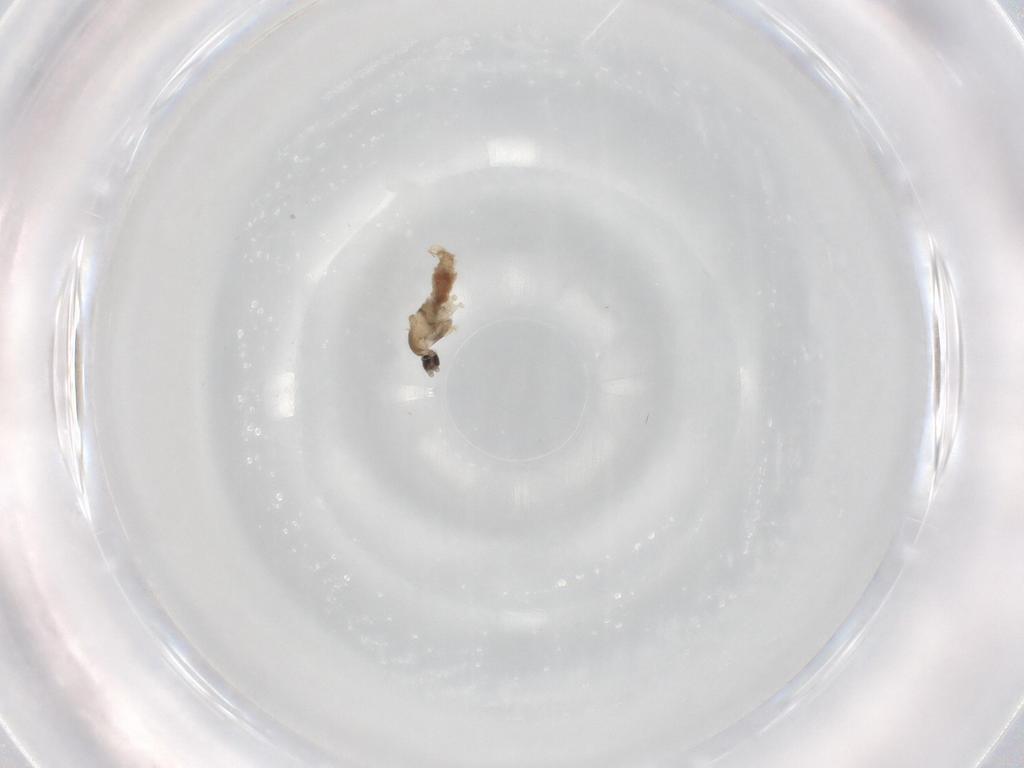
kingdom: Animalia
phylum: Arthropoda
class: Insecta
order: Diptera
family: Cecidomyiidae
